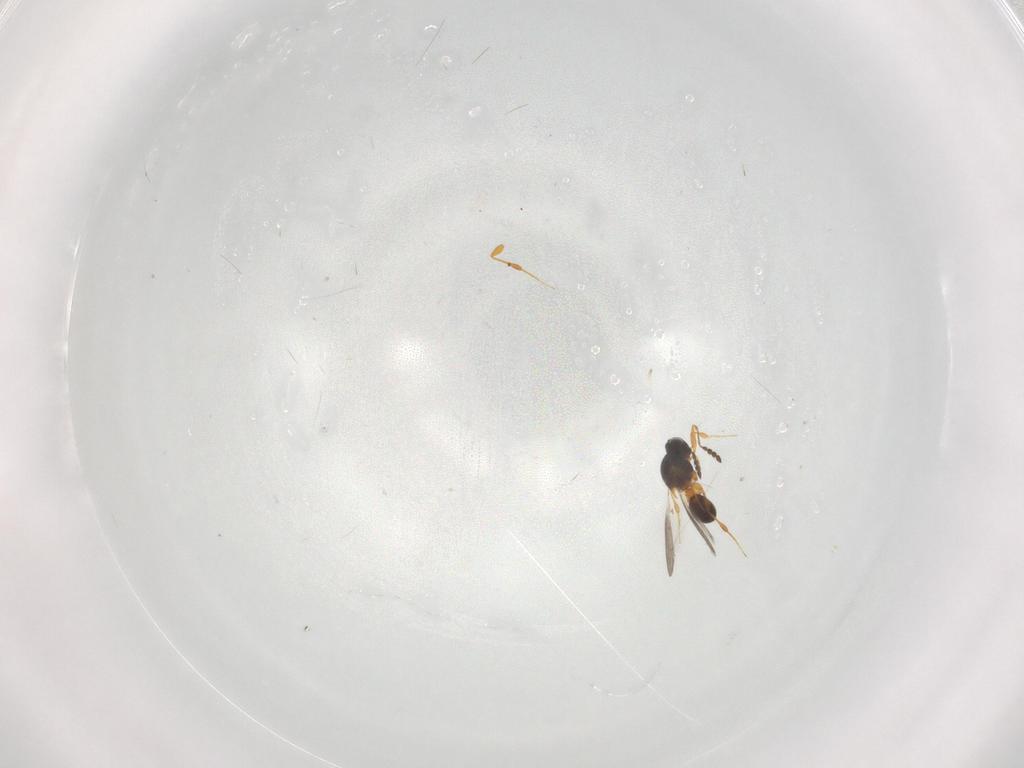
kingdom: Animalia
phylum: Arthropoda
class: Insecta
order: Hymenoptera
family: Platygastridae
